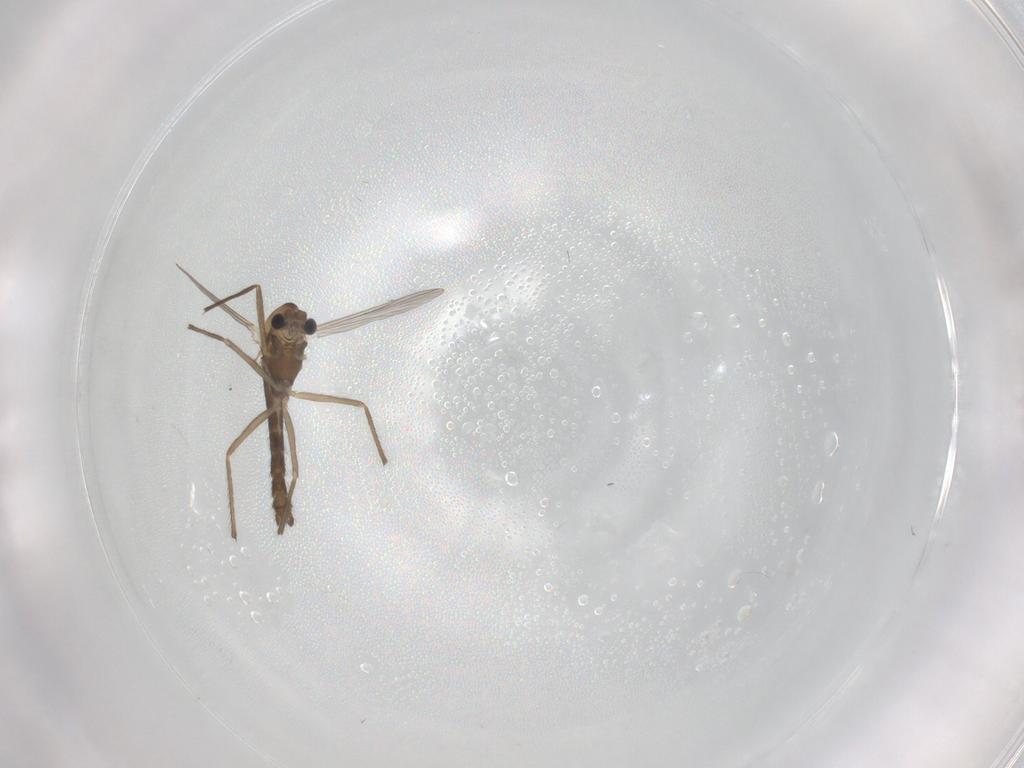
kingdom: Animalia
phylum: Arthropoda
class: Insecta
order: Diptera
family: Chironomidae
